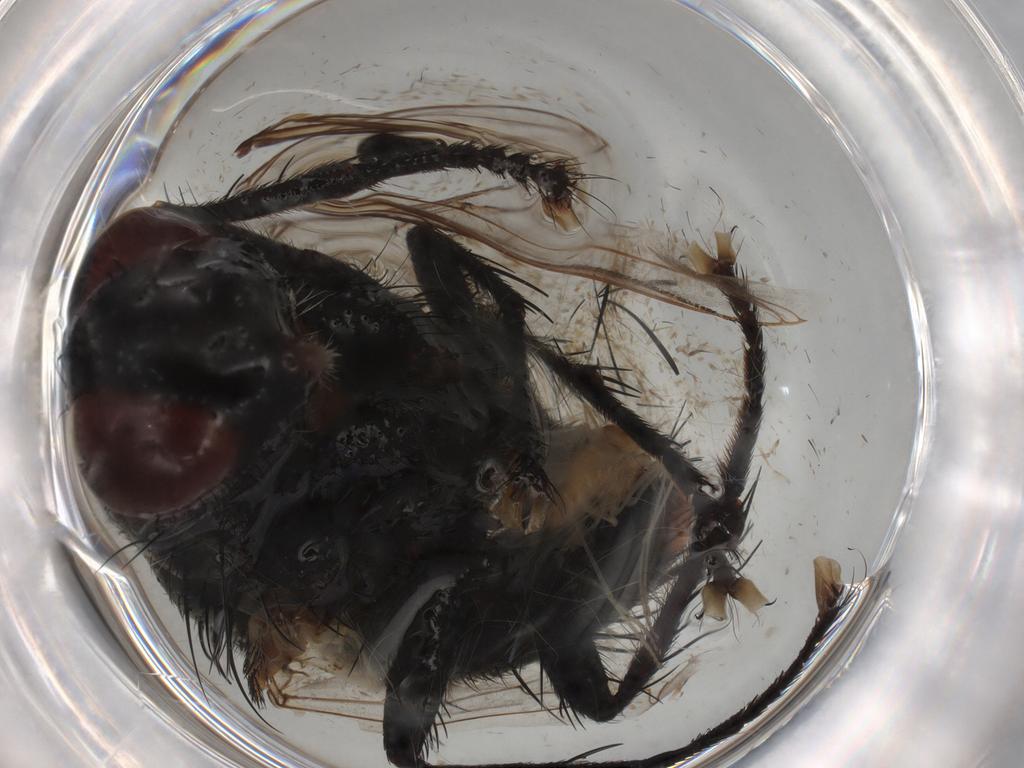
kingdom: Animalia
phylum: Arthropoda
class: Insecta
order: Diptera
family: Sarcophagidae
